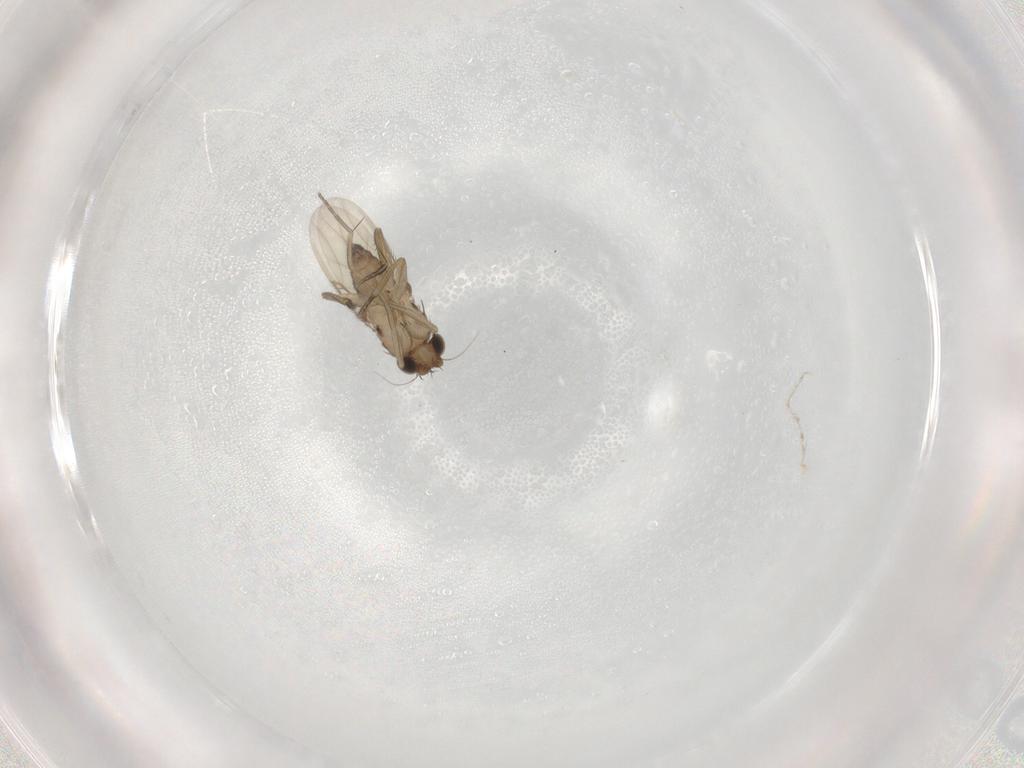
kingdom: Animalia
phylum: Arthropoda
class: Insecta
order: Diptera
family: Phoridae
